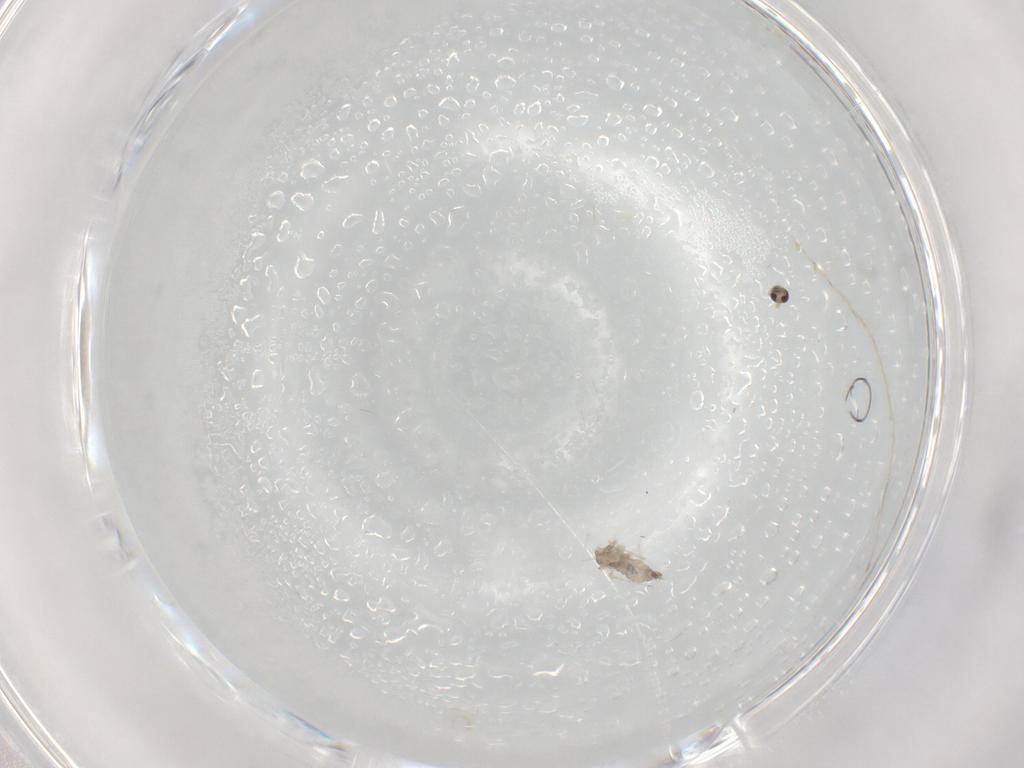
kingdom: Animalia
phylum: Arthropoda
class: Insecta
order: Diptera
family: Cecidomyiidae
